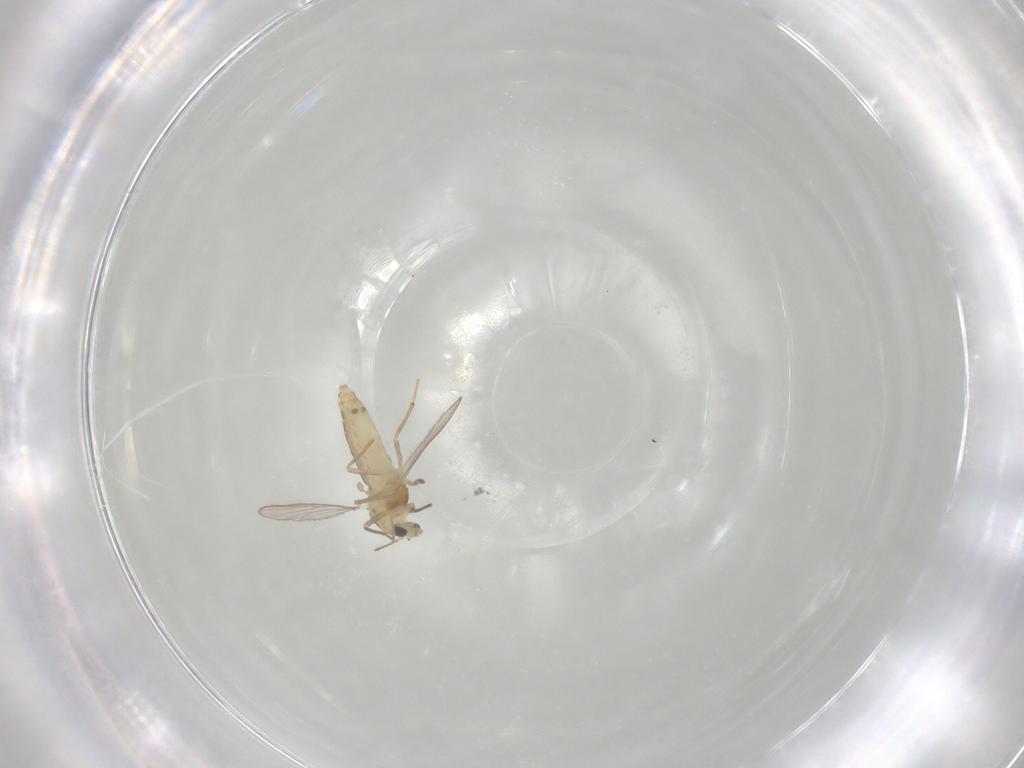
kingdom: Animalia
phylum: Arthropoda
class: Insecta
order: Diptera
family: Chironomidae
